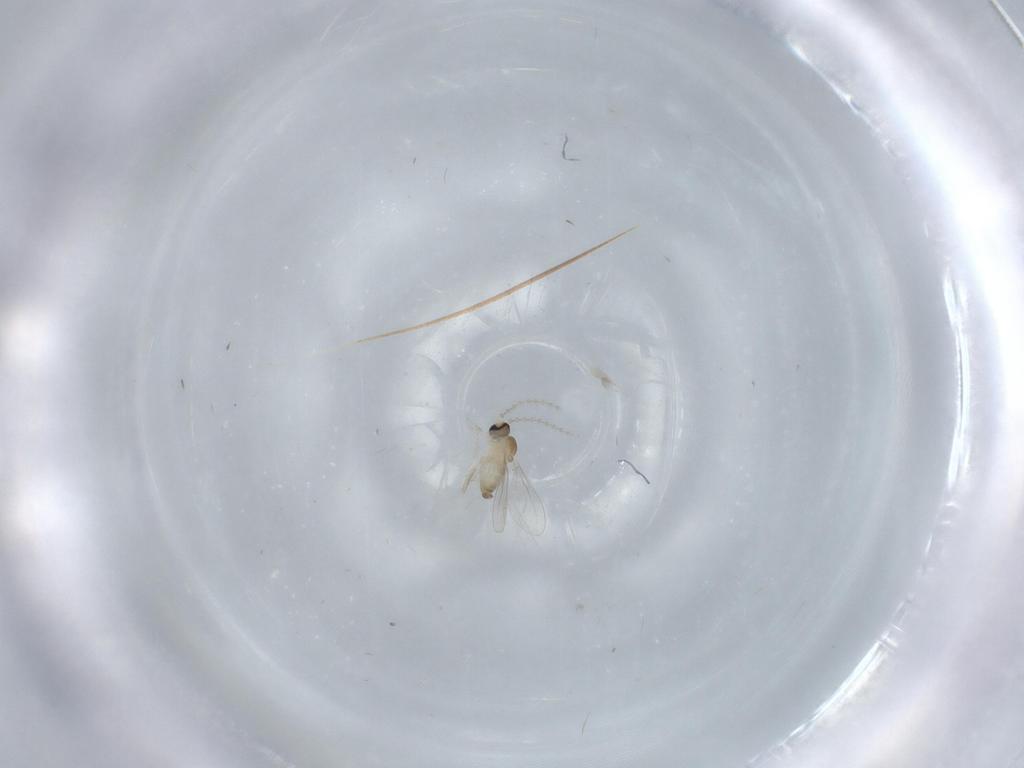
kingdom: Animalia
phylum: Arthropoda
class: Insecta
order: Diptera
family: Cecidomyiidae
